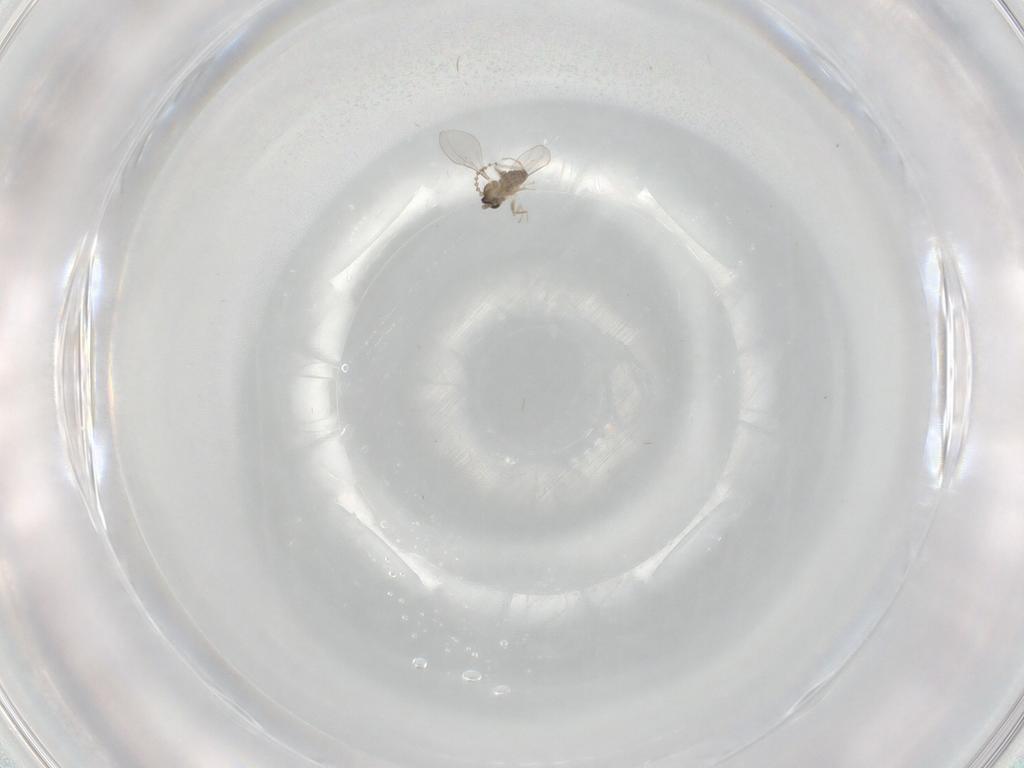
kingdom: Animalia
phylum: Arthropoda
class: Insecta
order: Diptera
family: Cecidomyiidae
